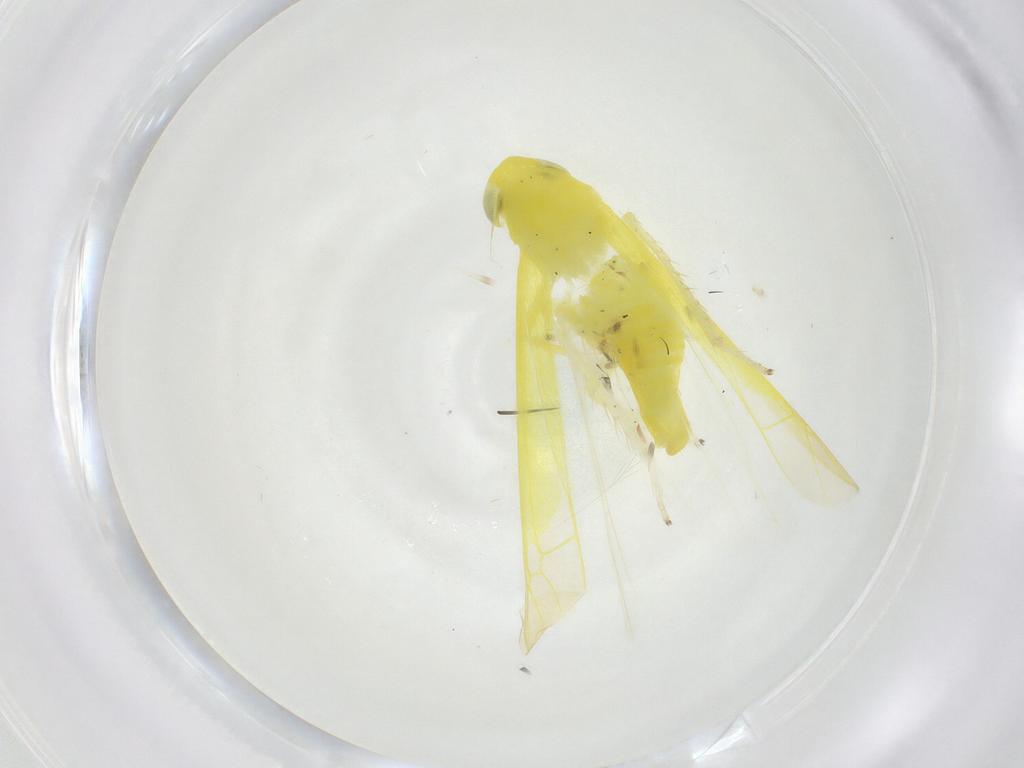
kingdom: Animalia
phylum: Arthropoda
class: Insecta
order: Hemiptera
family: Cicadellidae
